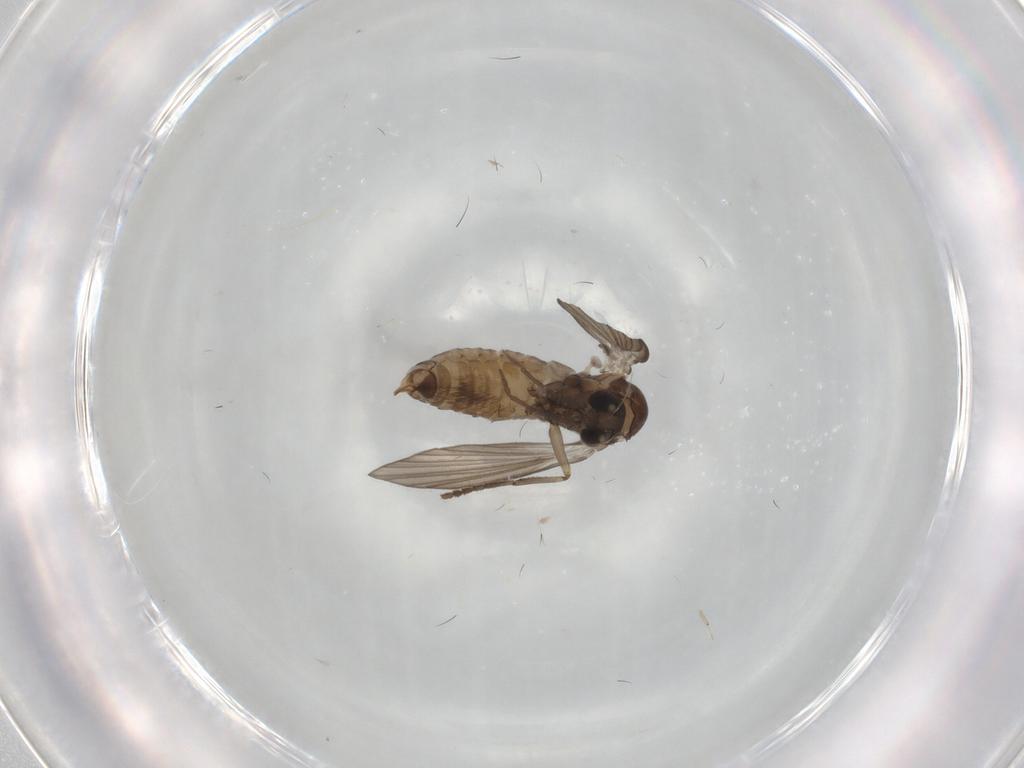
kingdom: Animalia
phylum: Arthropoda
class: Insecta
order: Diptera
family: Psychodidae
